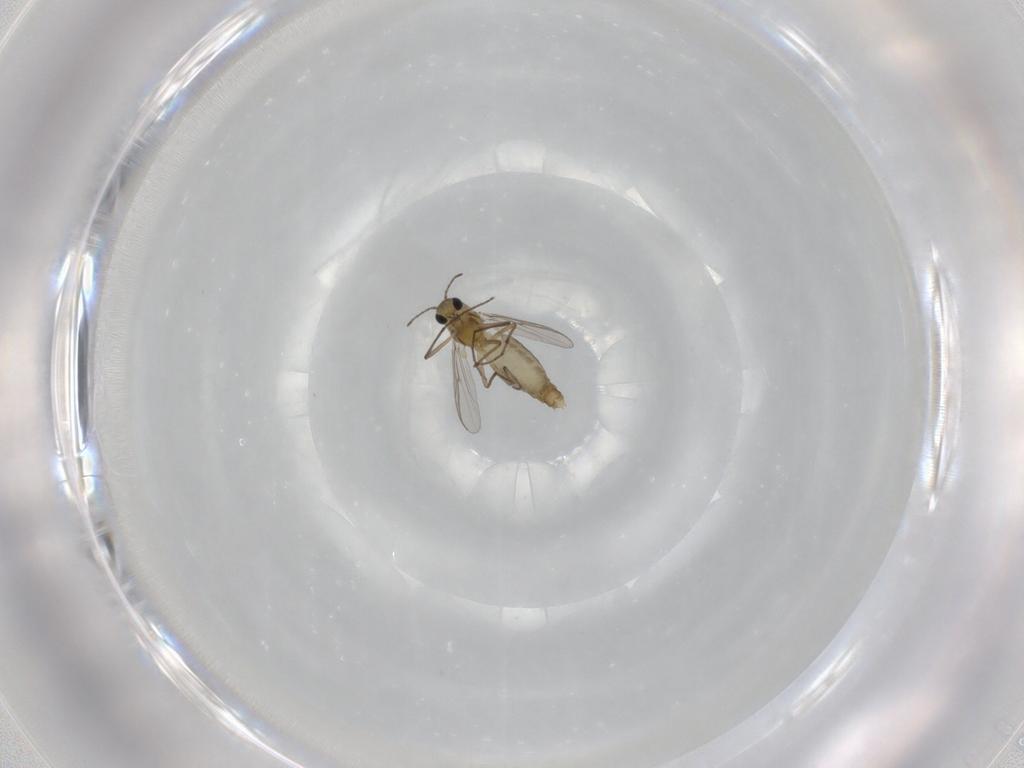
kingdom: Animalia
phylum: Arthropoda
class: Insecta
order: Diptera
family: Chironomidae
